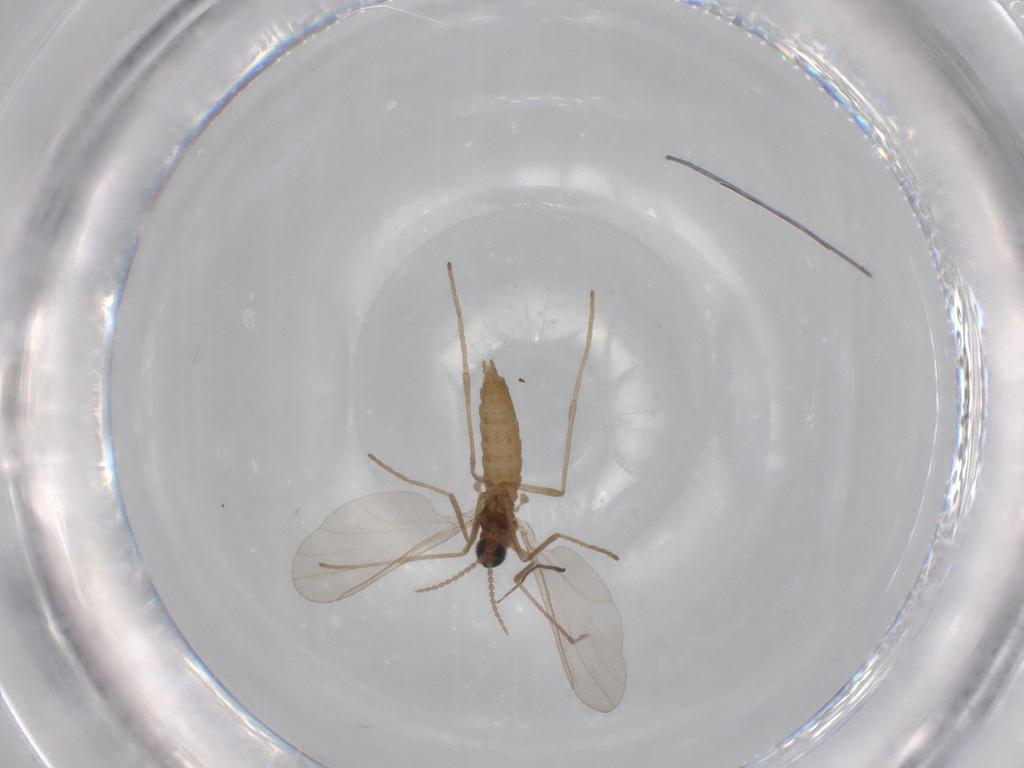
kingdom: Animalia
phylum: Arthropoda
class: Insecta
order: Diptera
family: Cecidomyiidae
